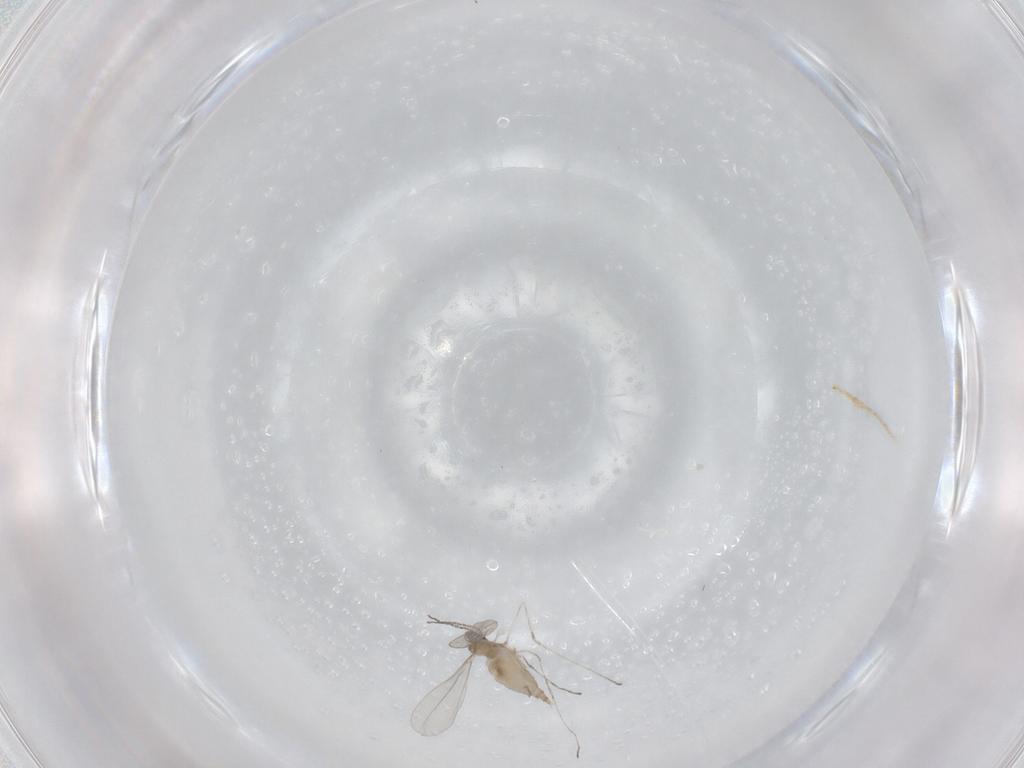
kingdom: Animalia
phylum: Arthropoda
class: Insecta
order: Diptera
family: Cecidomyiidae
